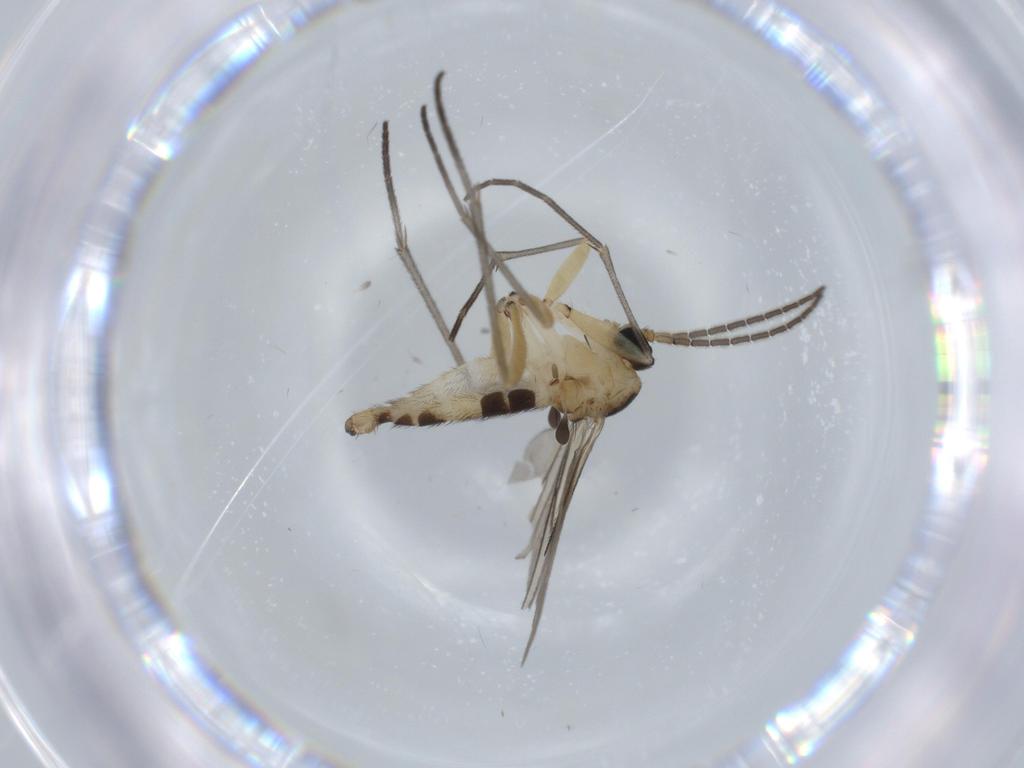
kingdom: Animalia
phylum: Arthropoda
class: Insecta
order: Diptera
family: Sciaridae
